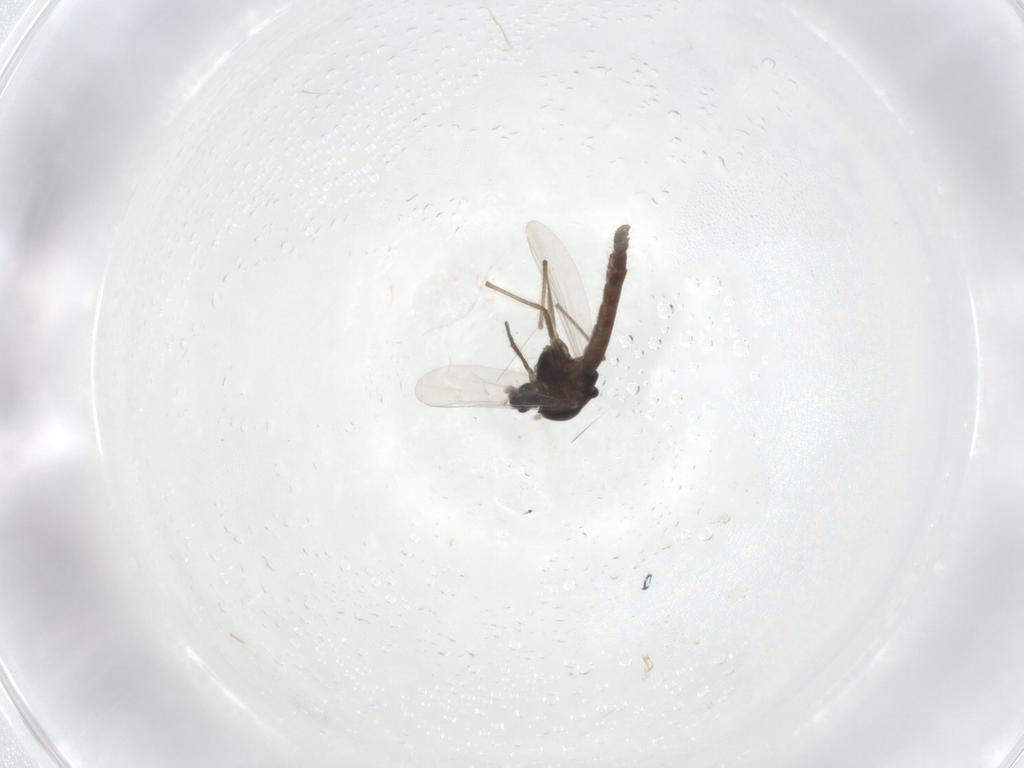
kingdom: Animalia
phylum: Arthropoda
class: Insecta
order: Diptera
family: Chironomidae
